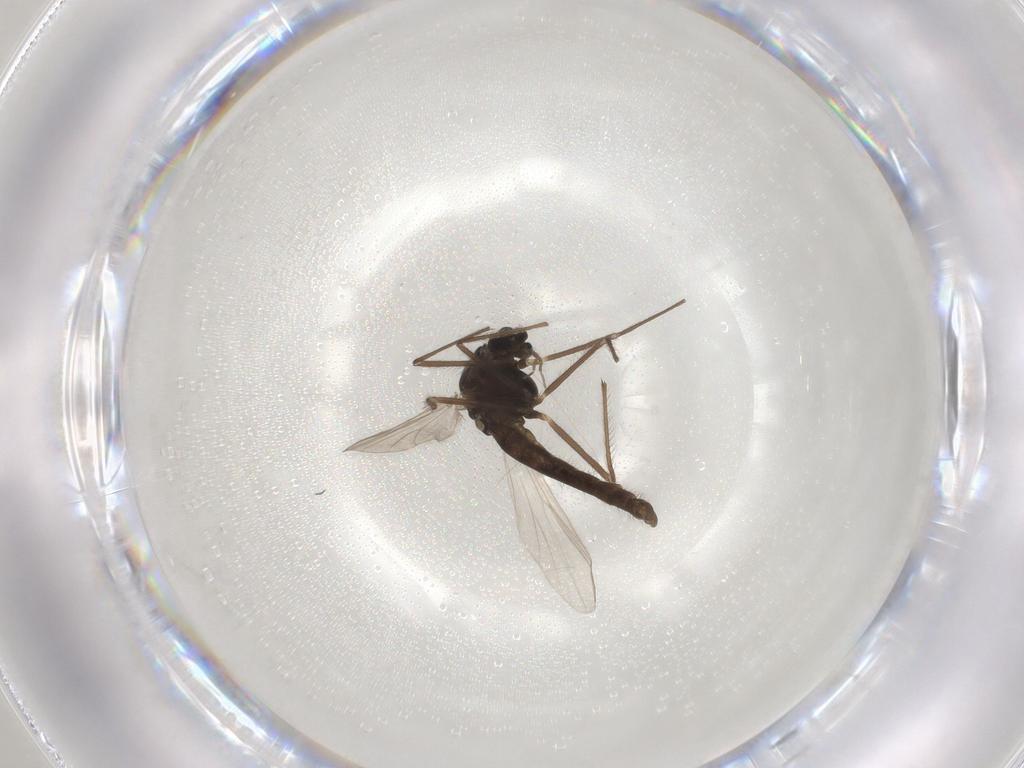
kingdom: Animalia
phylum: Arthropoda
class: Insecta
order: Diptera
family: Chironomidae
